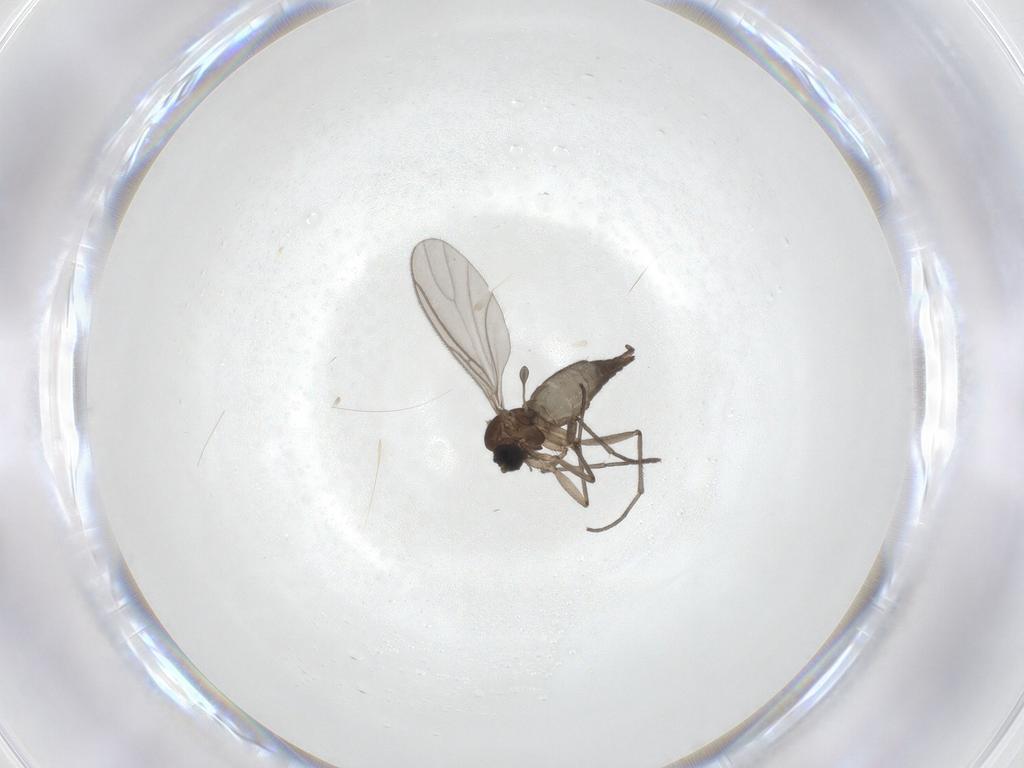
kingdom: Animalia
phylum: Arthropoda
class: Insecta
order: Diptera
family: Sciaridae
